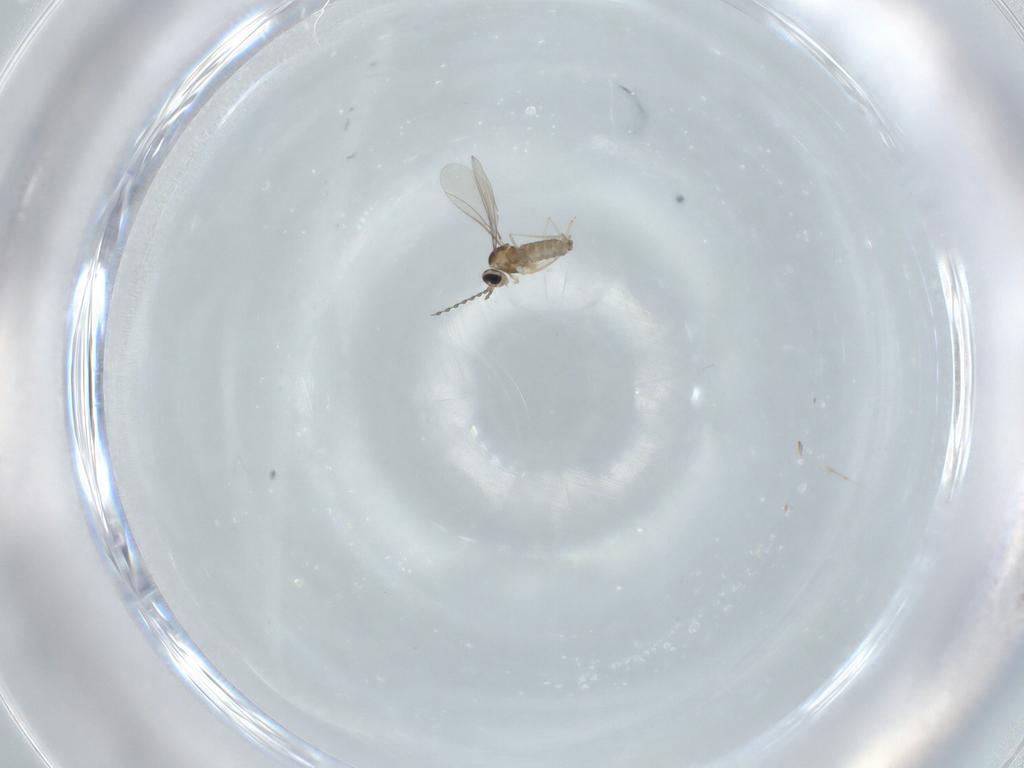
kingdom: Animalia
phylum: Arthropoda
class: Insecta
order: Diptera
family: Cecidomyiidae
